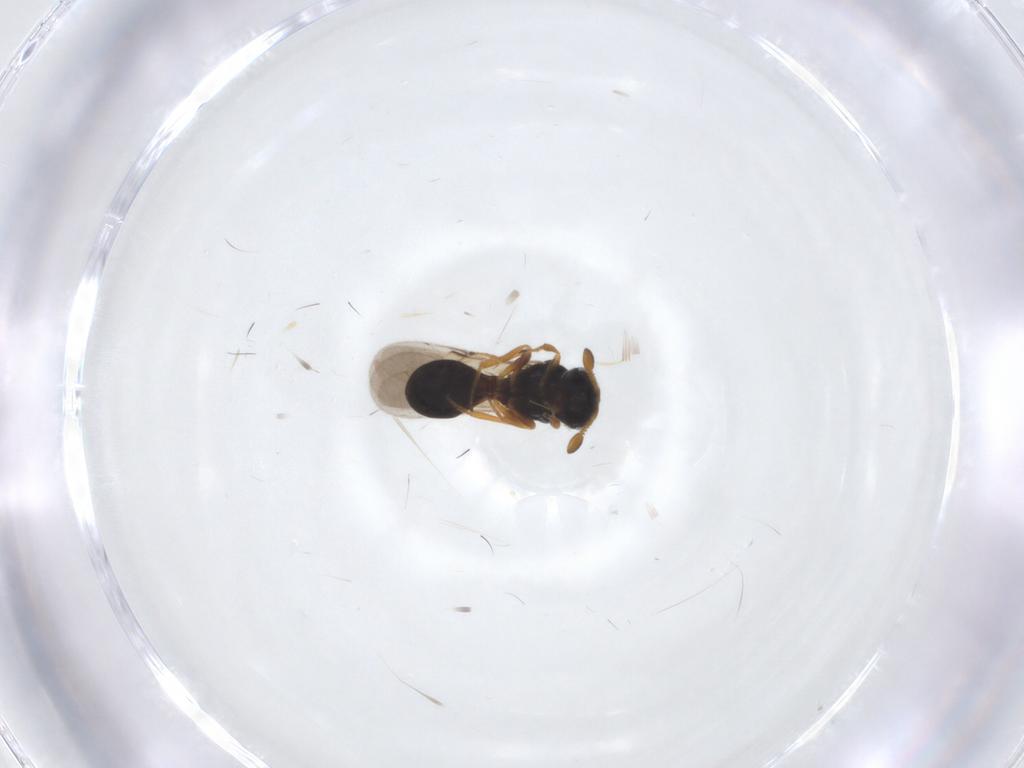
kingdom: Animalia
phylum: Arthropoda
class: Insecta
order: Hymenoptera
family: Scelionidae
